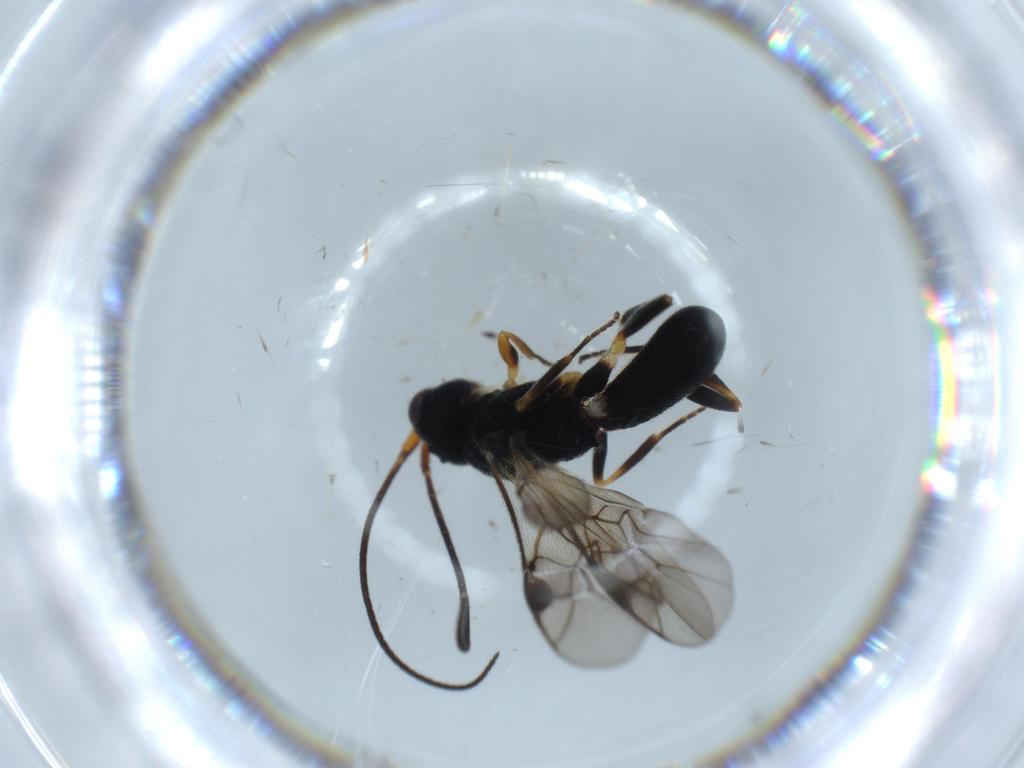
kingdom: Animalia
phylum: Arthropoda
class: Insecta
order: Hymenoptera
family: Braconidae
